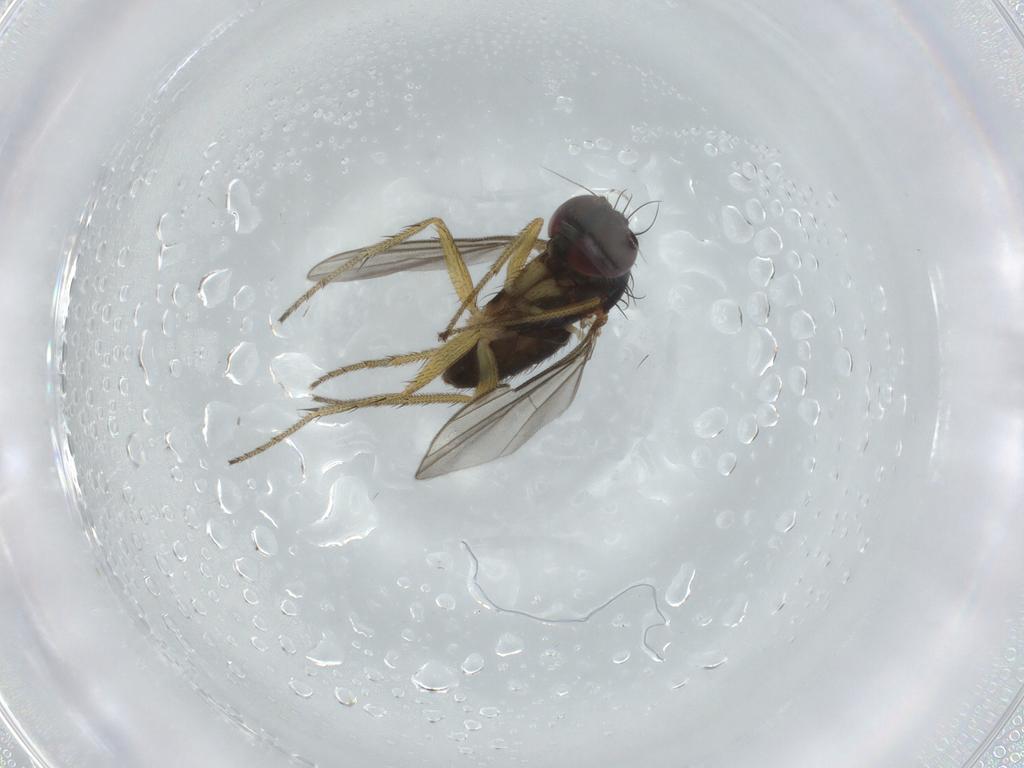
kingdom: Animalia
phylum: Arthropoda
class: Insecta
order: Diptera
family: Dolichopodidae
